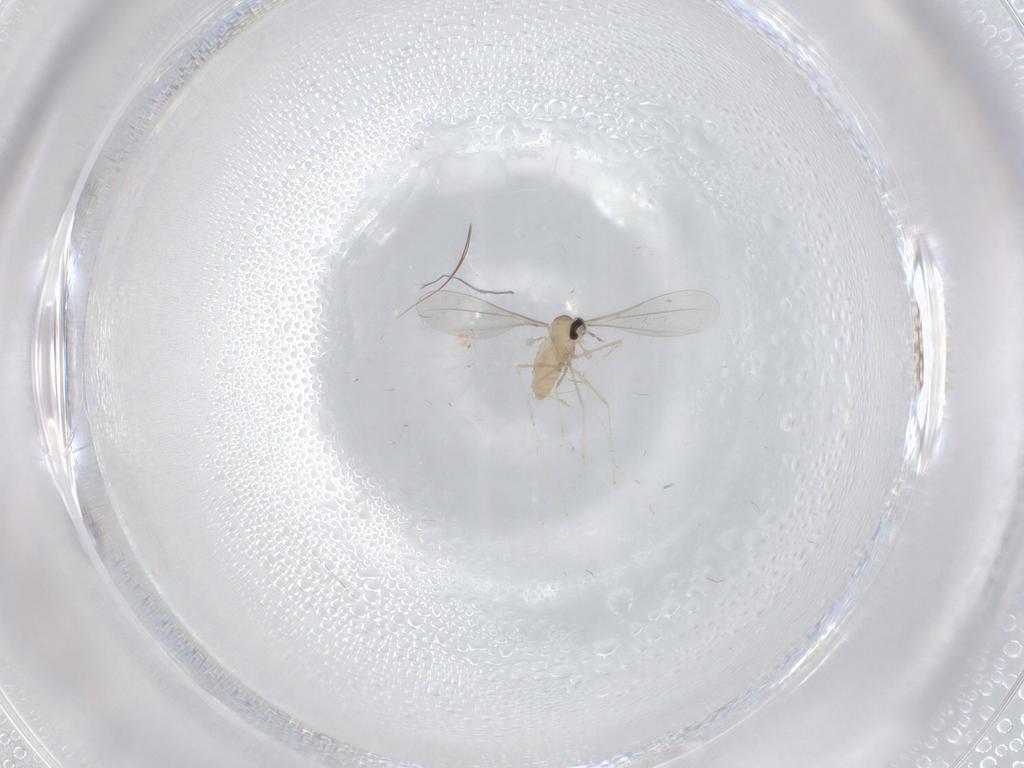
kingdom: Animalia
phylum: Arthropoda
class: Insecta
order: Diptera
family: Cecidomyiidae
